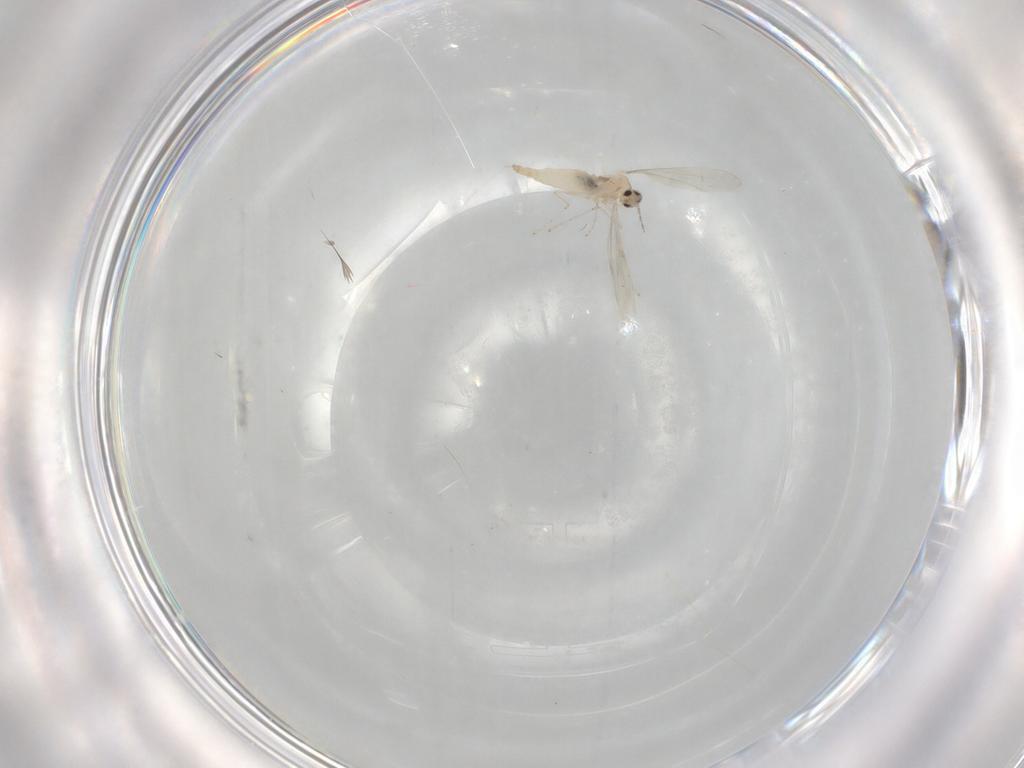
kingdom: Animalia
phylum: Arthropoda
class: Insecta
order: Diptera
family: Cecidomyiidae
